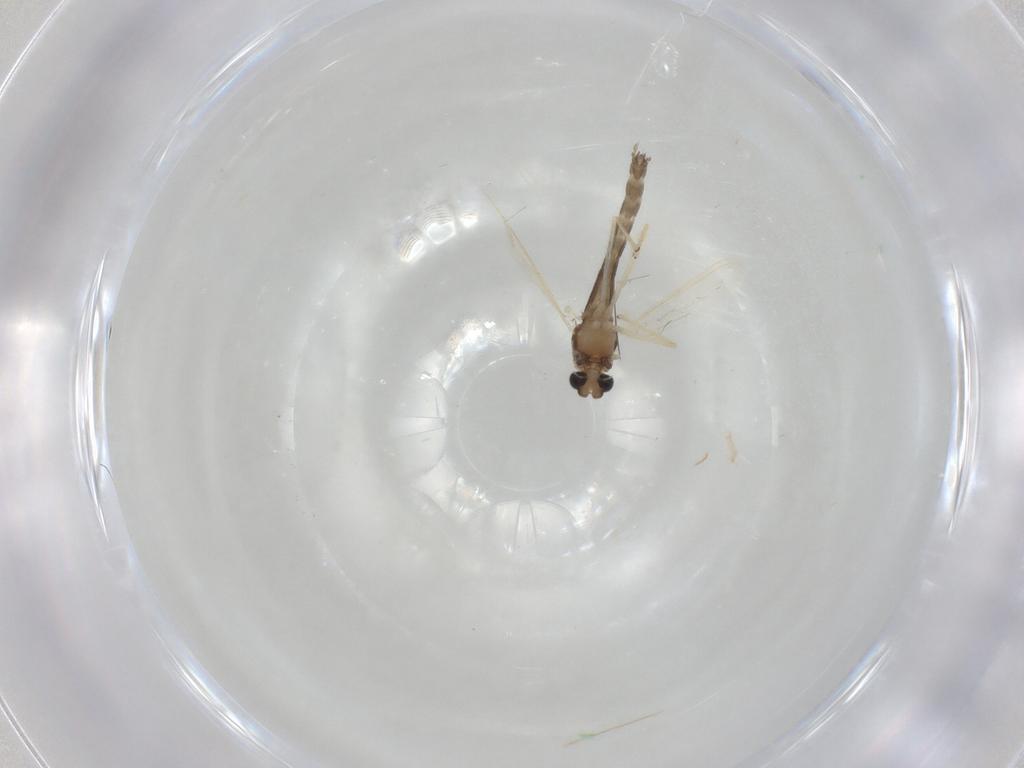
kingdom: Animalia
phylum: Arthropoda
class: Insecta
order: Diptera
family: Chironomidae
